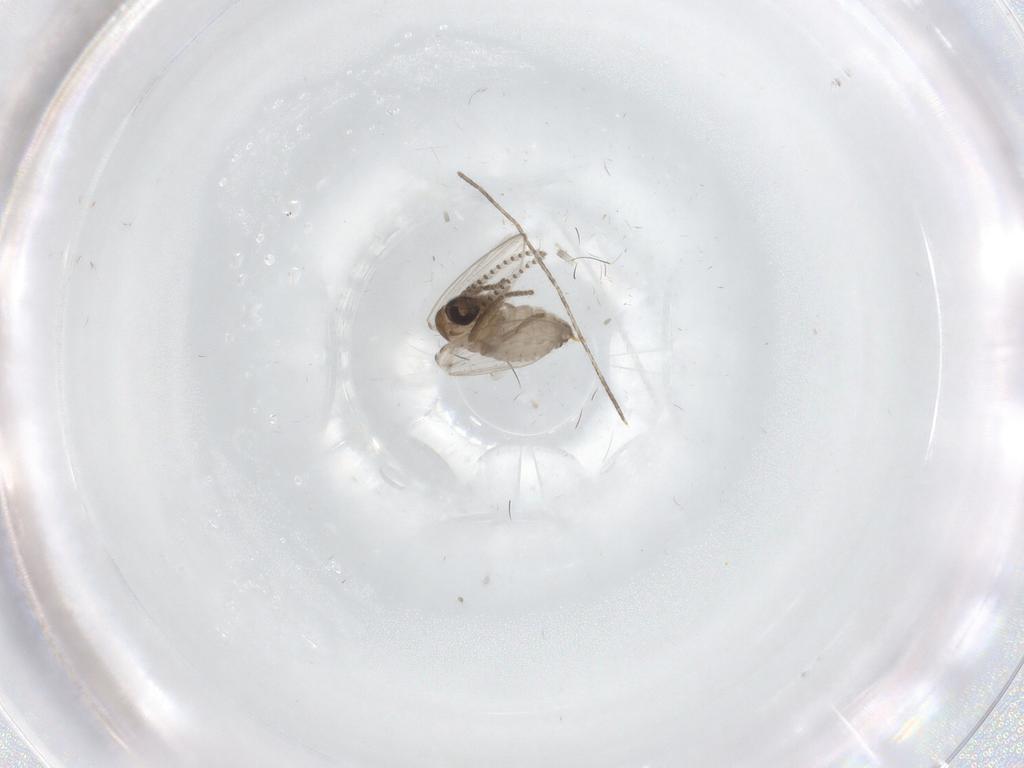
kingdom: Animalia
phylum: Arthropoda
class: Insecta
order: Diptera
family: Psychodidae
